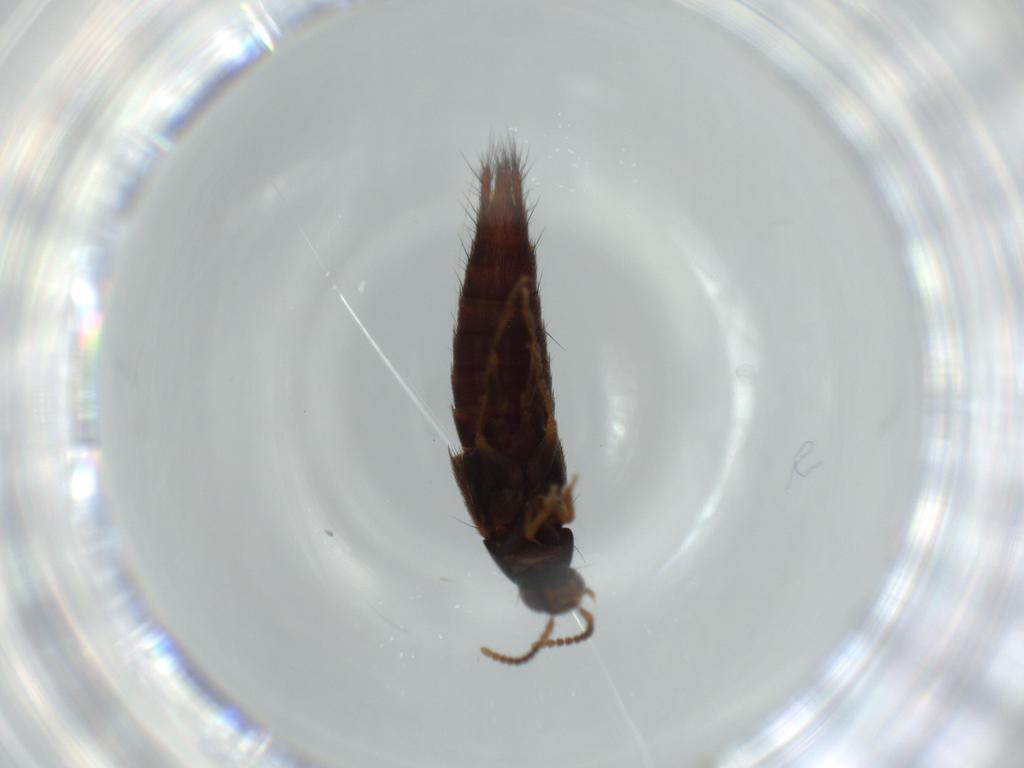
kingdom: Animalia
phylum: Arthropoda
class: Insecta
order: Coleoptera
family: Staphylinidae
